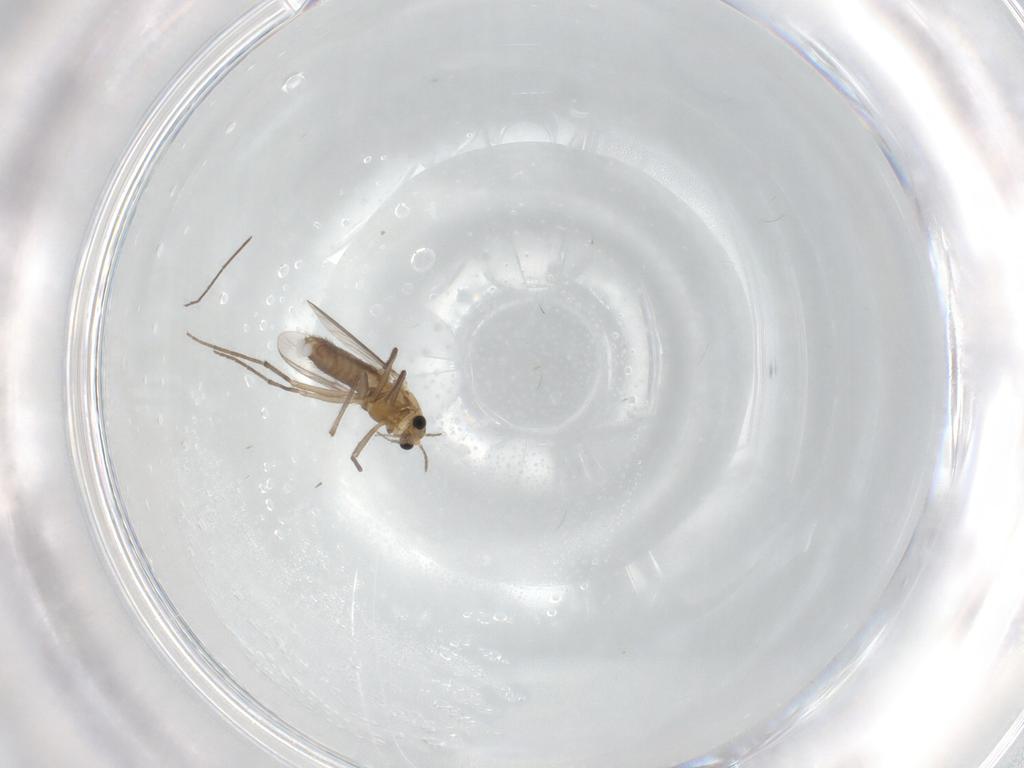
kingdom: Animalia
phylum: Arthropoda
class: Insecta
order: Diptera
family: Chironomidae
